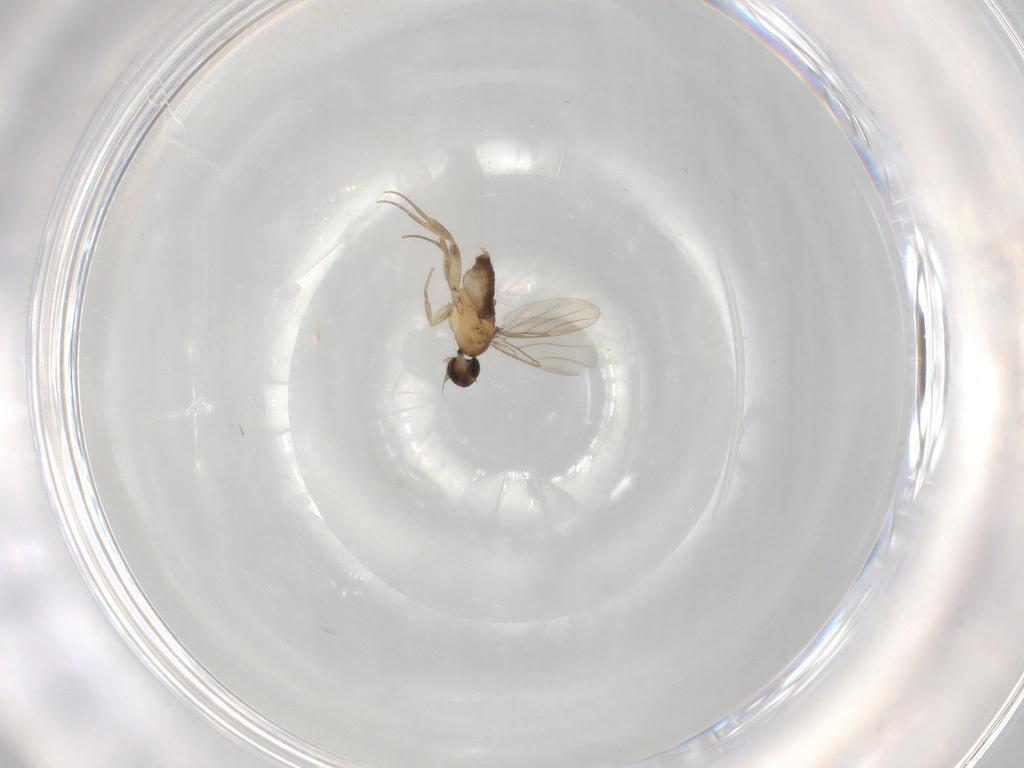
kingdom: Animalia
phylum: Arthropoda
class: Insecta
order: Diptera
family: Phoridae
